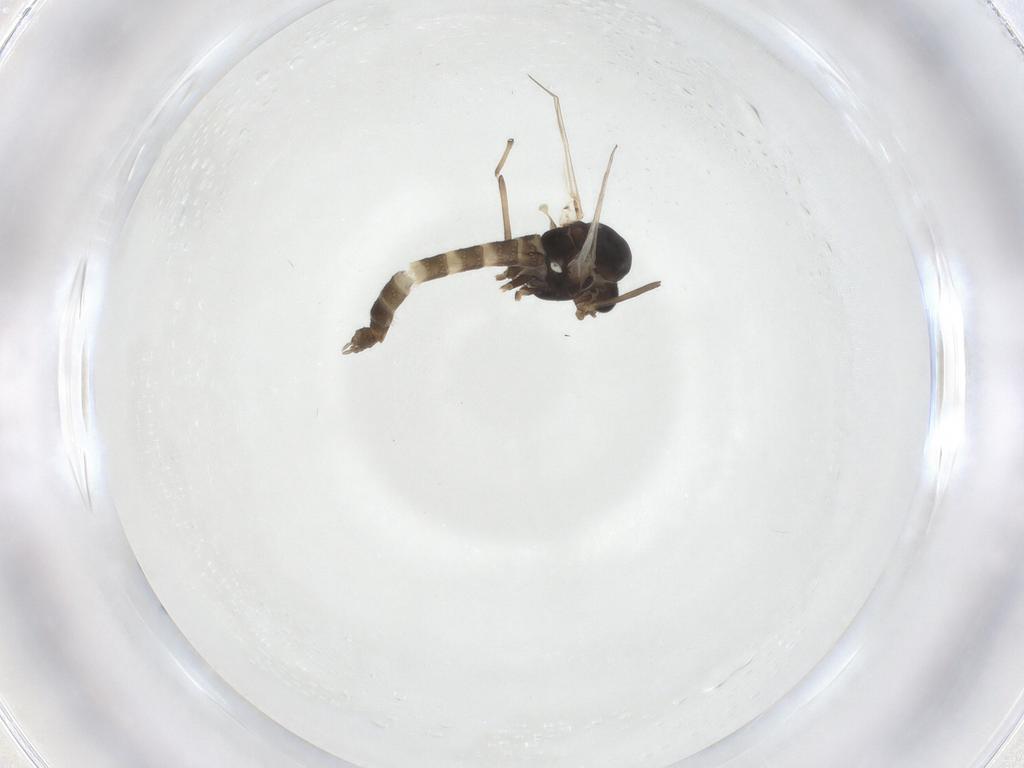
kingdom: Animalia
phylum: Arthropoda
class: Insecta
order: Diptera
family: Chironomidae
